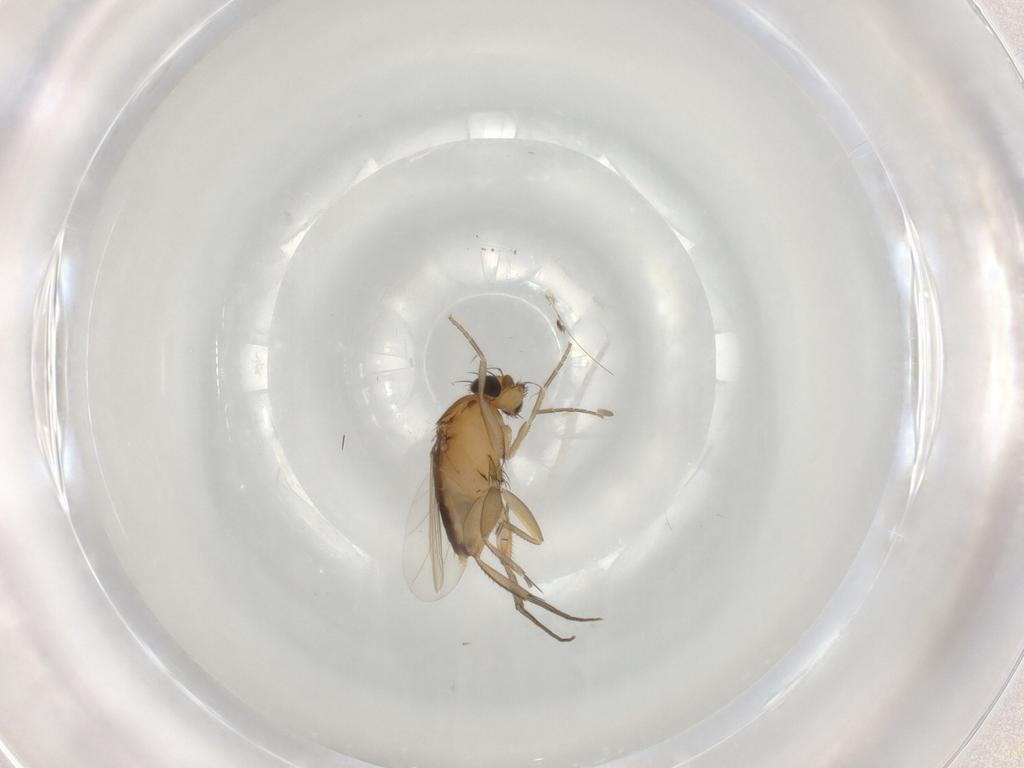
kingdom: Animalia
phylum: Arthropoda
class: Insecta
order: Diptera
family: Phoridae
